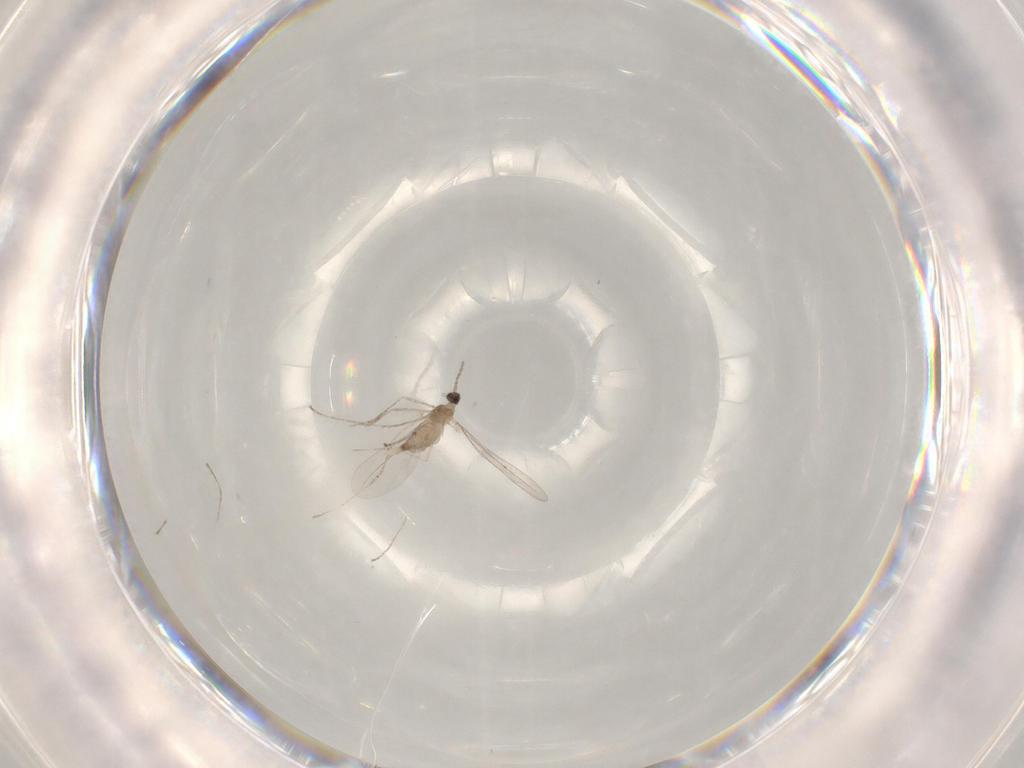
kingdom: Animalia
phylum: Arthropoda
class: Insecta
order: Diptera
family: Cecidomyiidae
